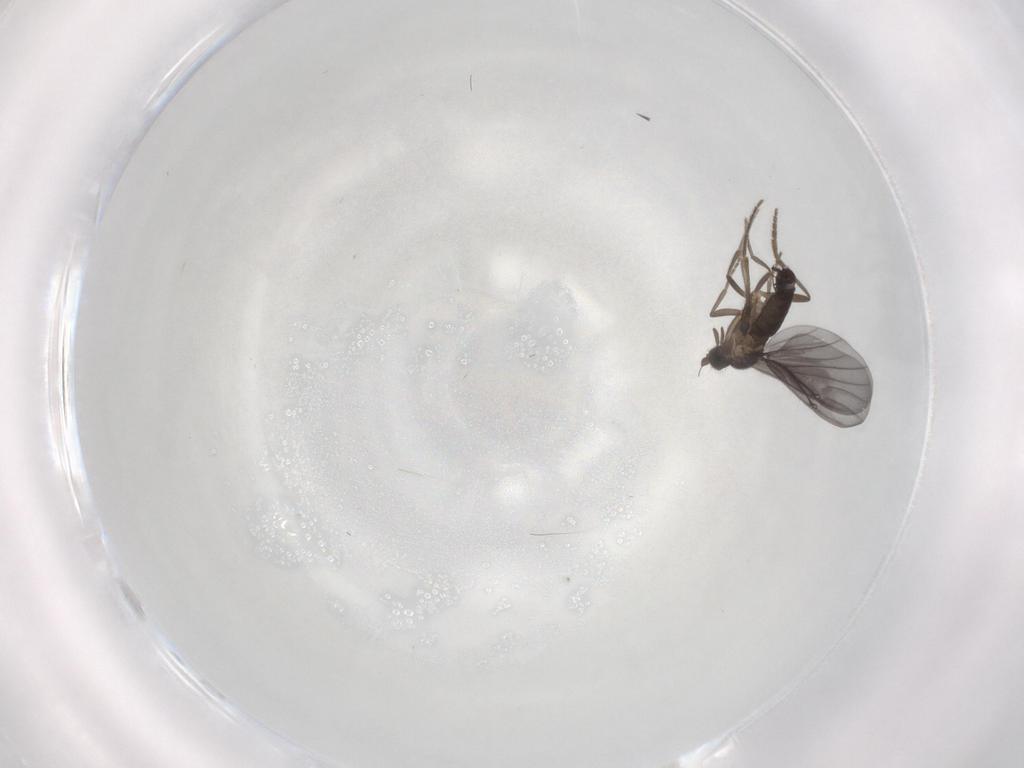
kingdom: Animalia
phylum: Arthropoda
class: Insecta
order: Diptera
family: Phoridae
